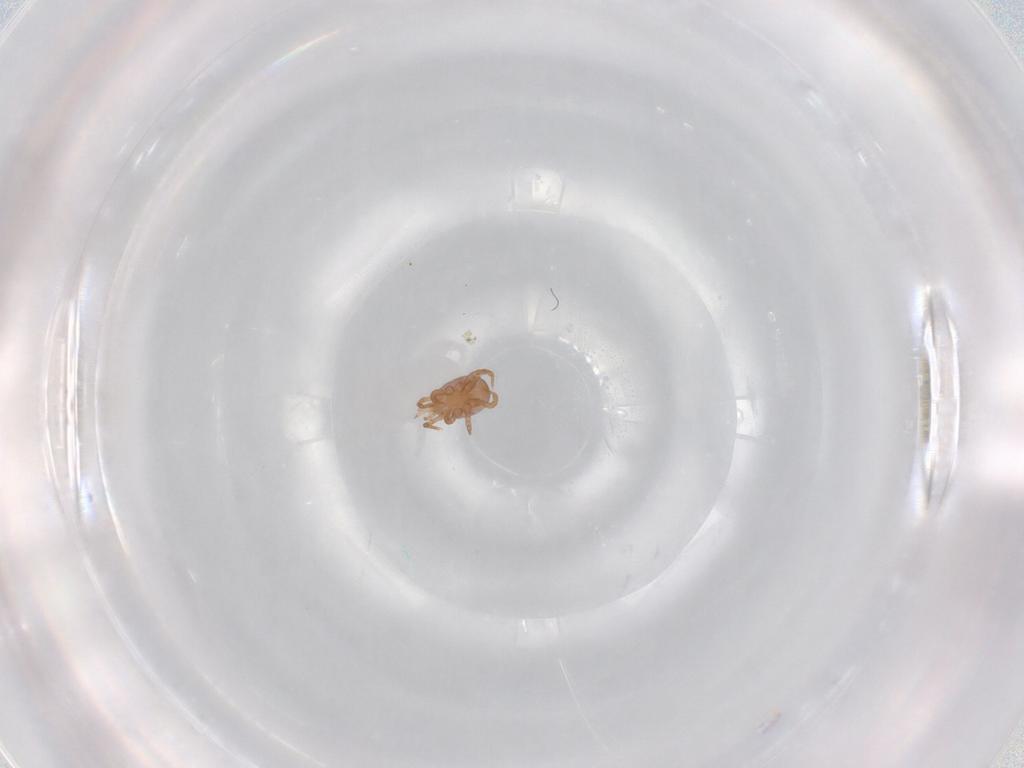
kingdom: Animalia
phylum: Arthropoda
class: Arachnida
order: Mesostigmata
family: Eviphididae
